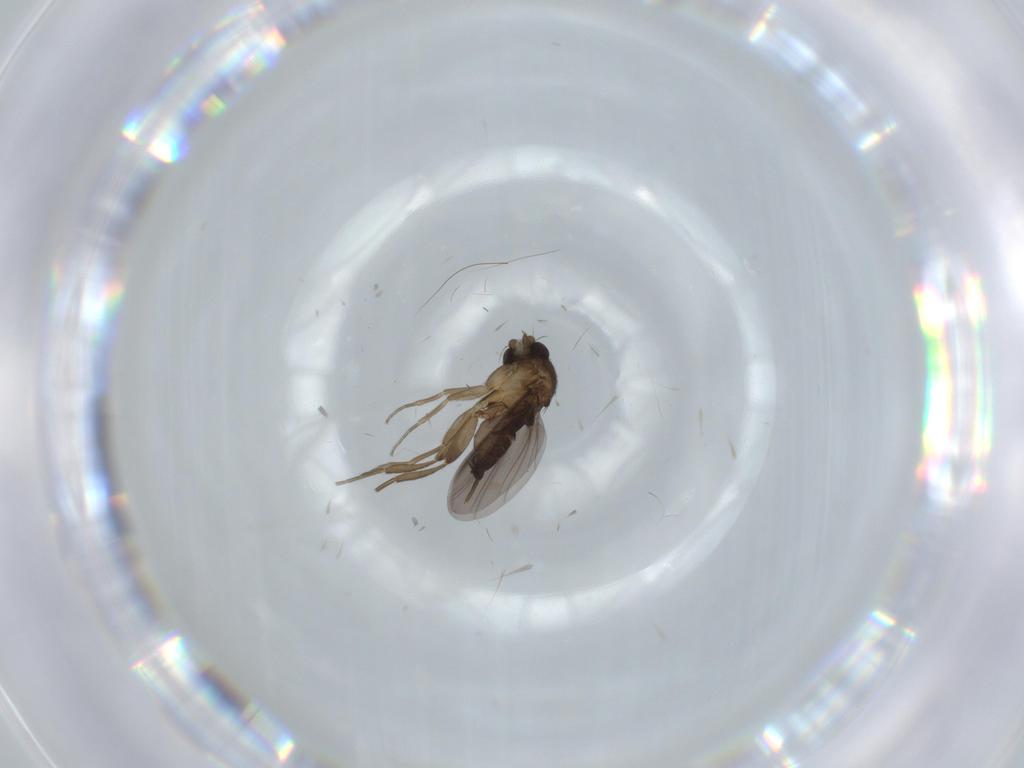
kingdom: Animalia
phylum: Arthropoda
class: Insecta
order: Diptera
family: Phoridae
